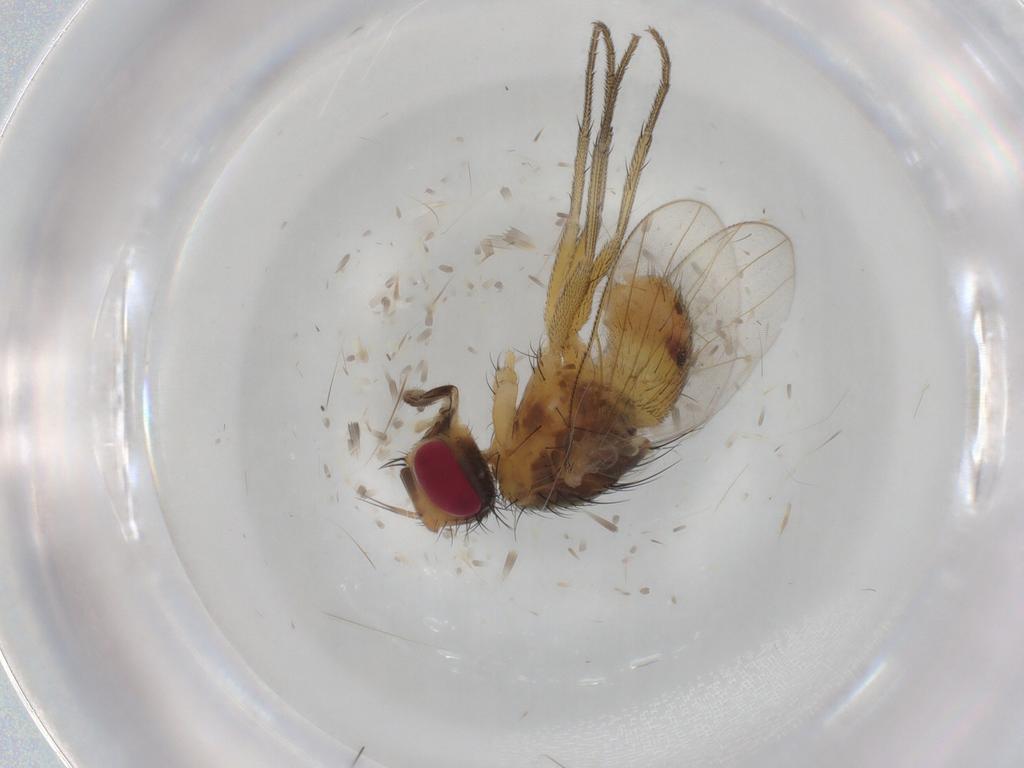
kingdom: Animalia
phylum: Arthropoda
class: Insecta
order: Diptera
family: Muscidae
